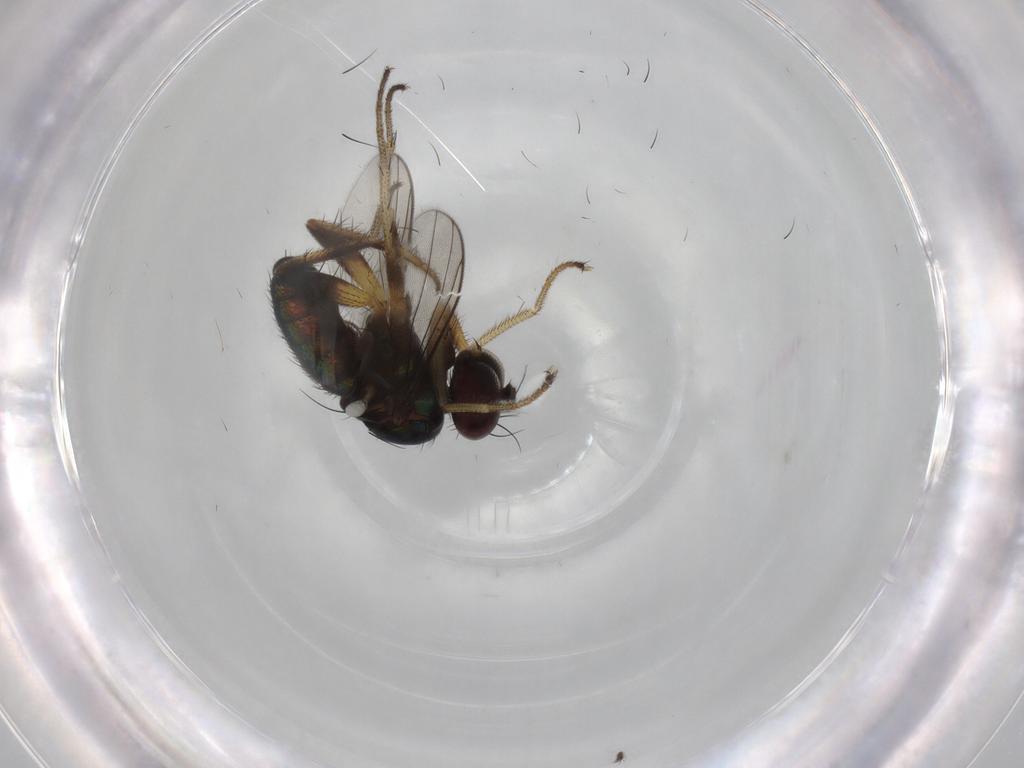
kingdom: Animalia
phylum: Arthropoda
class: Insecta
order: Diptera
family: Dolichopodidae
